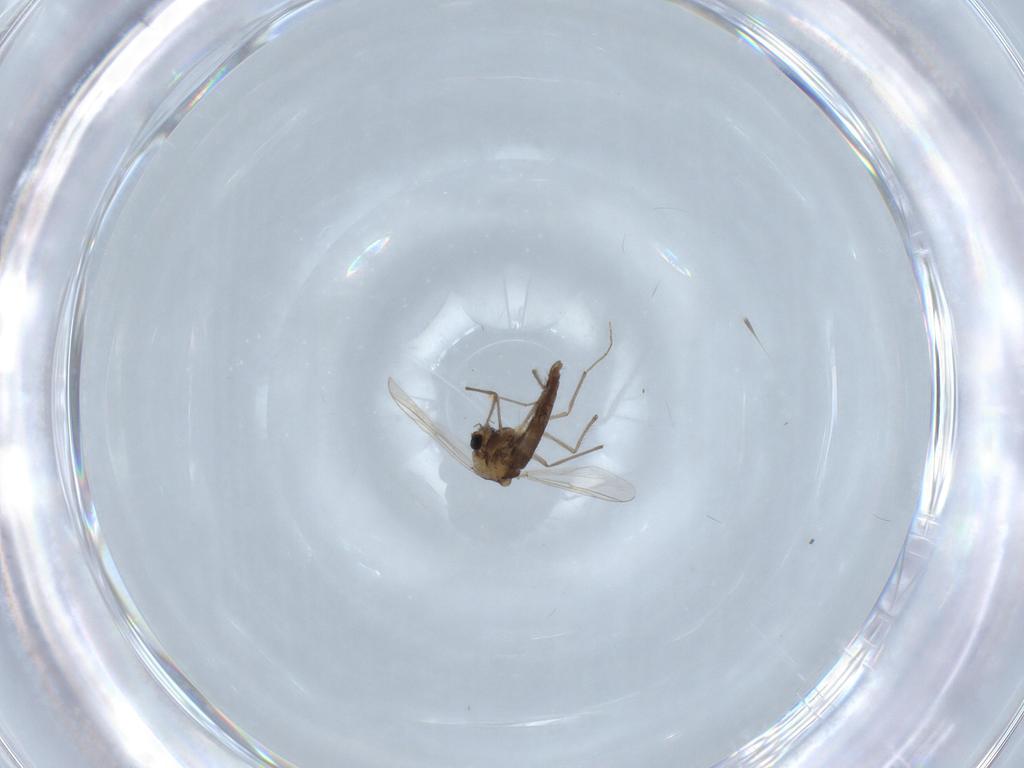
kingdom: Animalia
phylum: Arthropoda
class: Insecta
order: Diptera
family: Chironomidae
